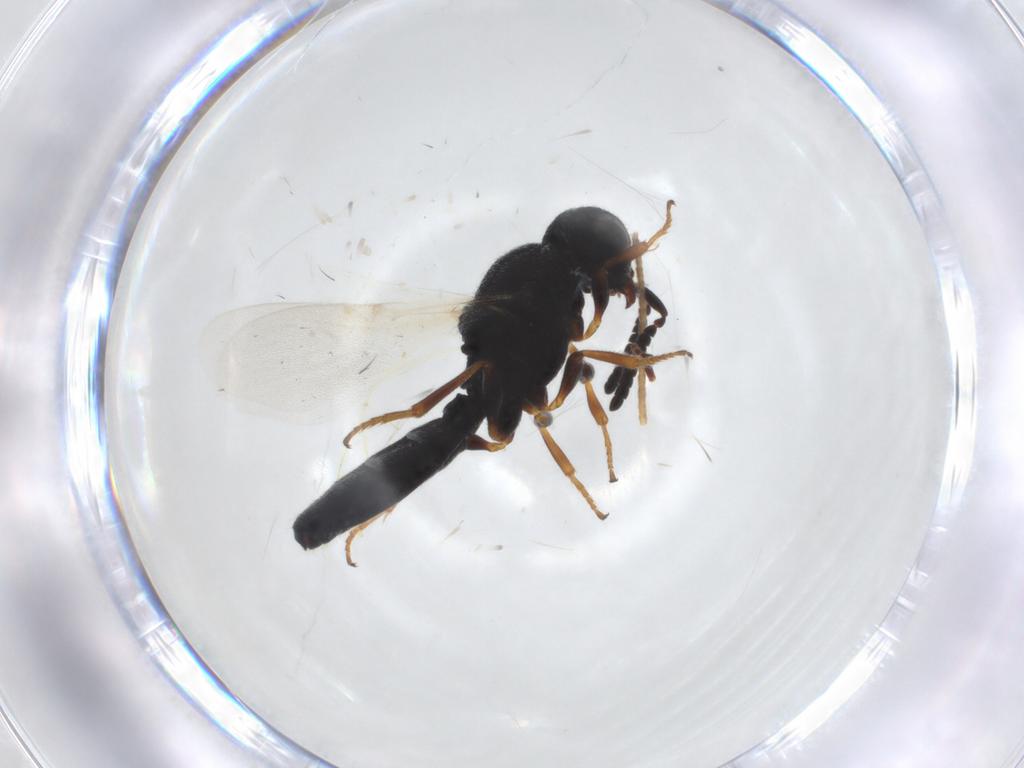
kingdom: Animalia
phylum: Arthropoda
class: Insecta
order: Hymenoptera
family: Scelionidae
